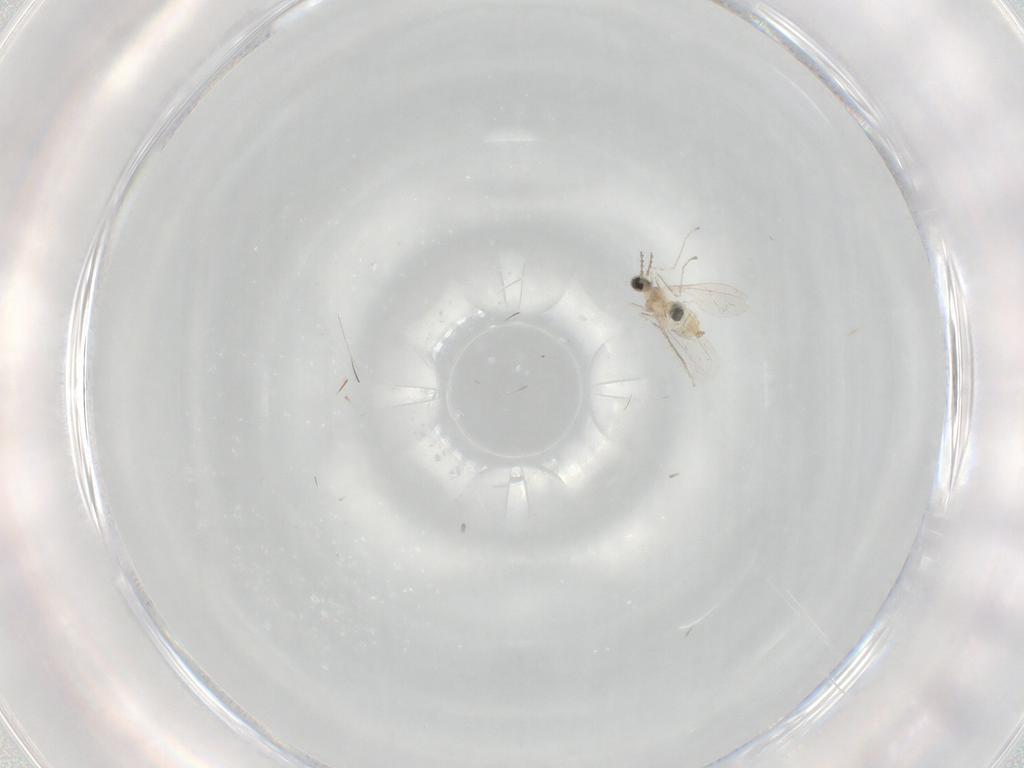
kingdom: Animalia
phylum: Arthropoda
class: Insecta
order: Diptera
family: Cecidomyiidae
